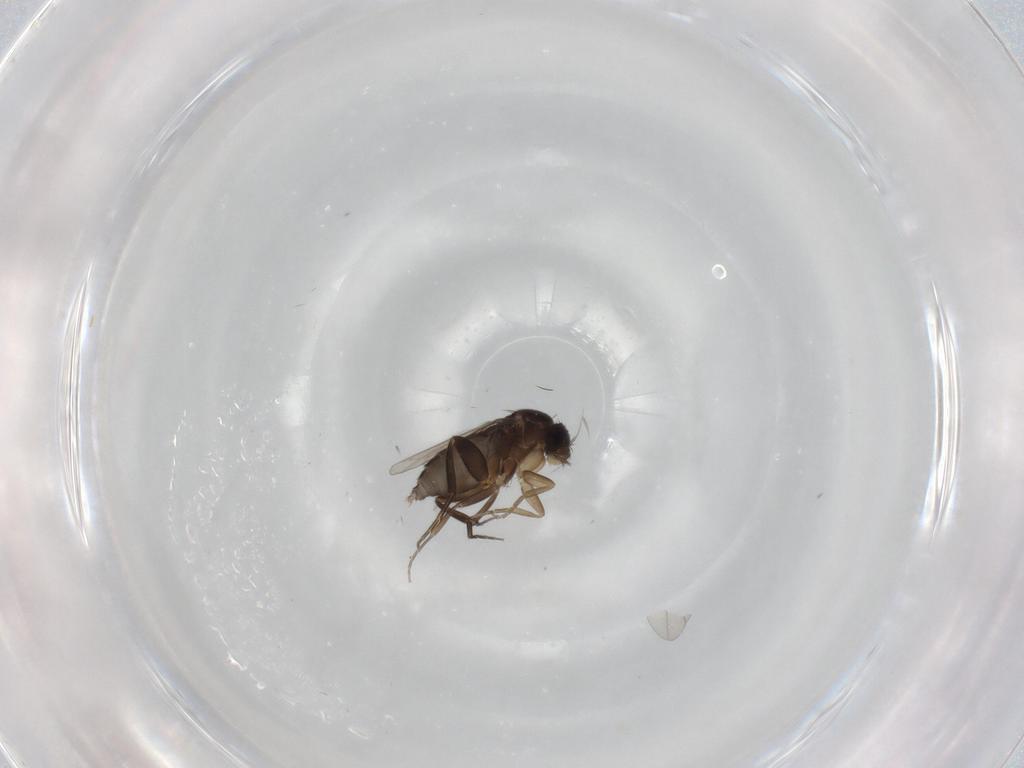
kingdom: Animalia
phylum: Arthropoda
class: Insecta
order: Diptera
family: Phoridae
